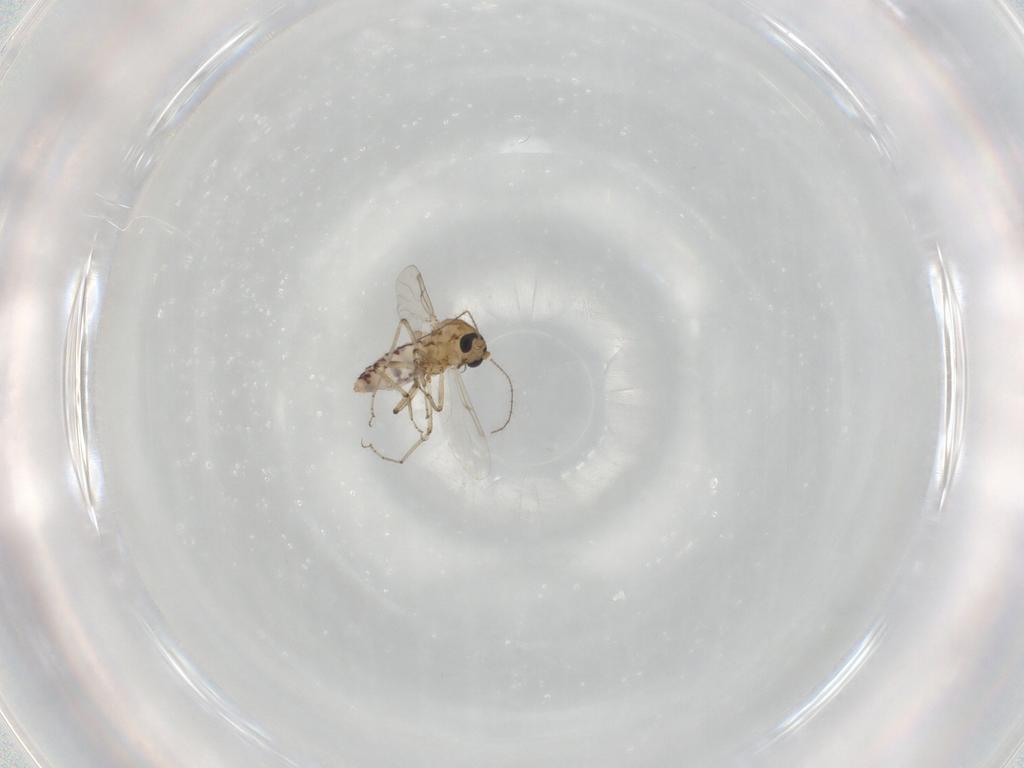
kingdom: Animalia
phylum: Arthropoda
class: Insecta
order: Diptera
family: Ceratopogonidae
